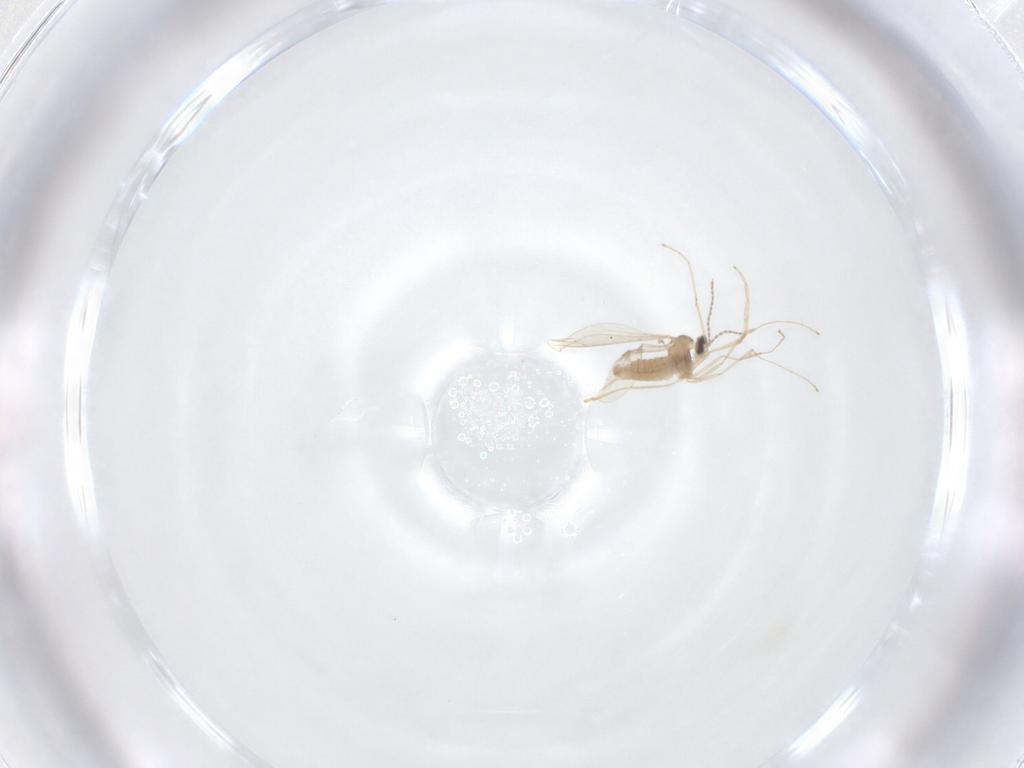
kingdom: Animalia
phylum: Arthropoda
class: Insecta
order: Diptera
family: Cecidomyiidae
